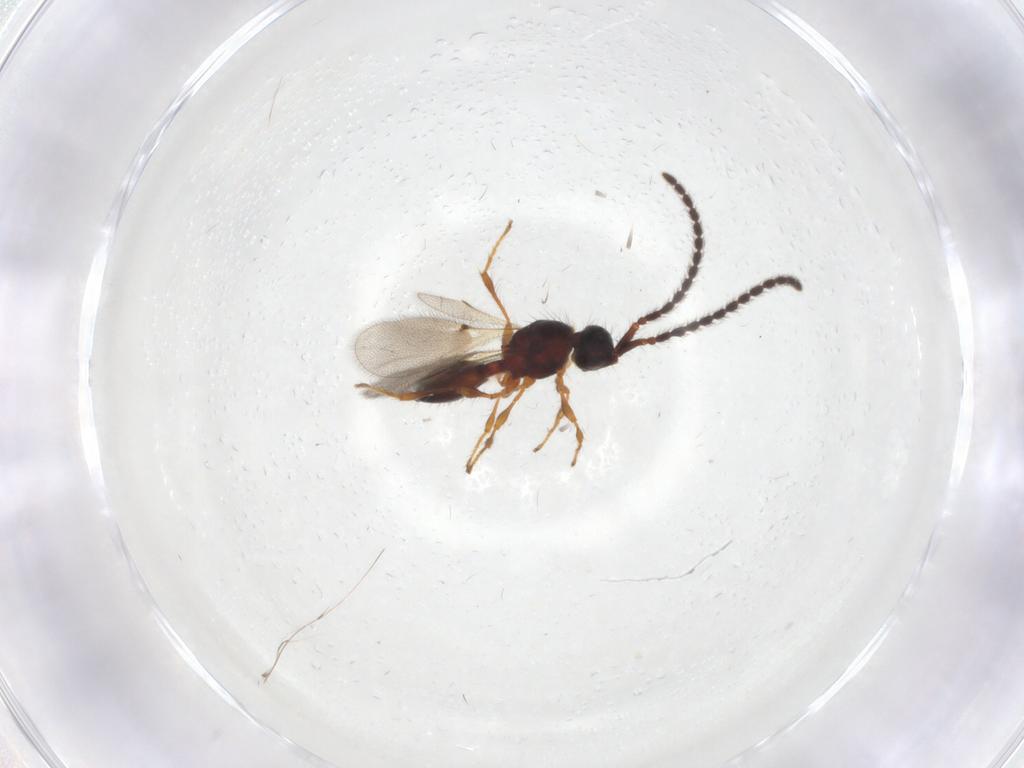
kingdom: Animalia
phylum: Arthropoda
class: Insecta
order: Hymenoptera
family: Diapriidae
